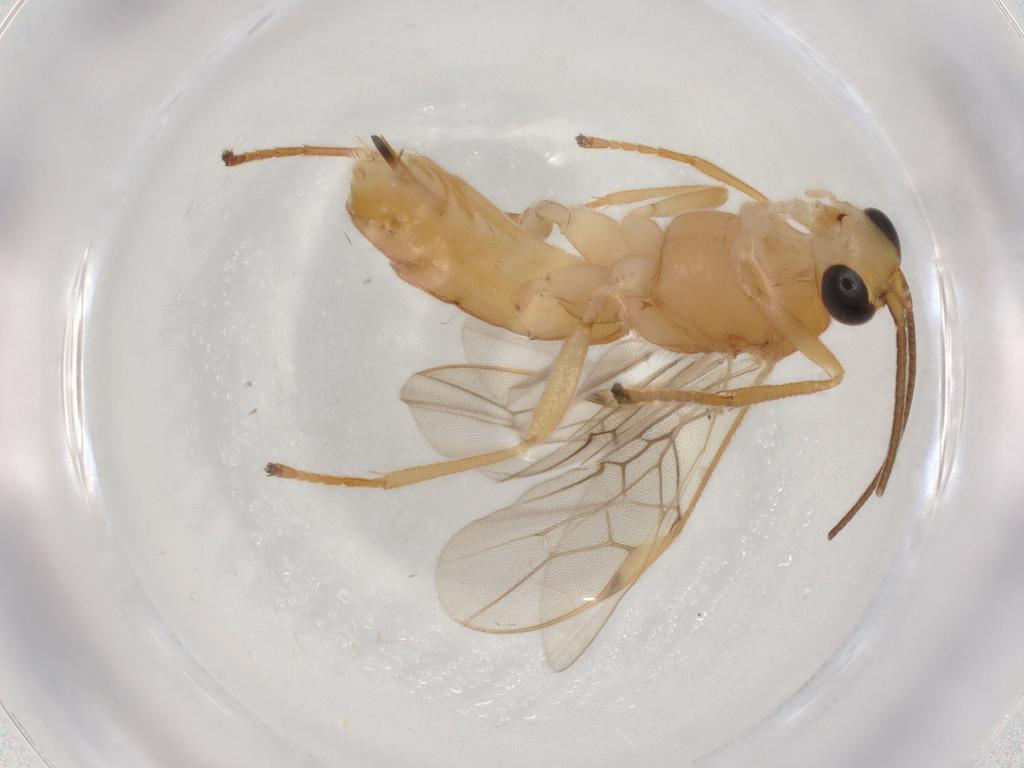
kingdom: Animalia
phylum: Arthropoda
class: Insecta
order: Hymenoptera
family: Braconidae
